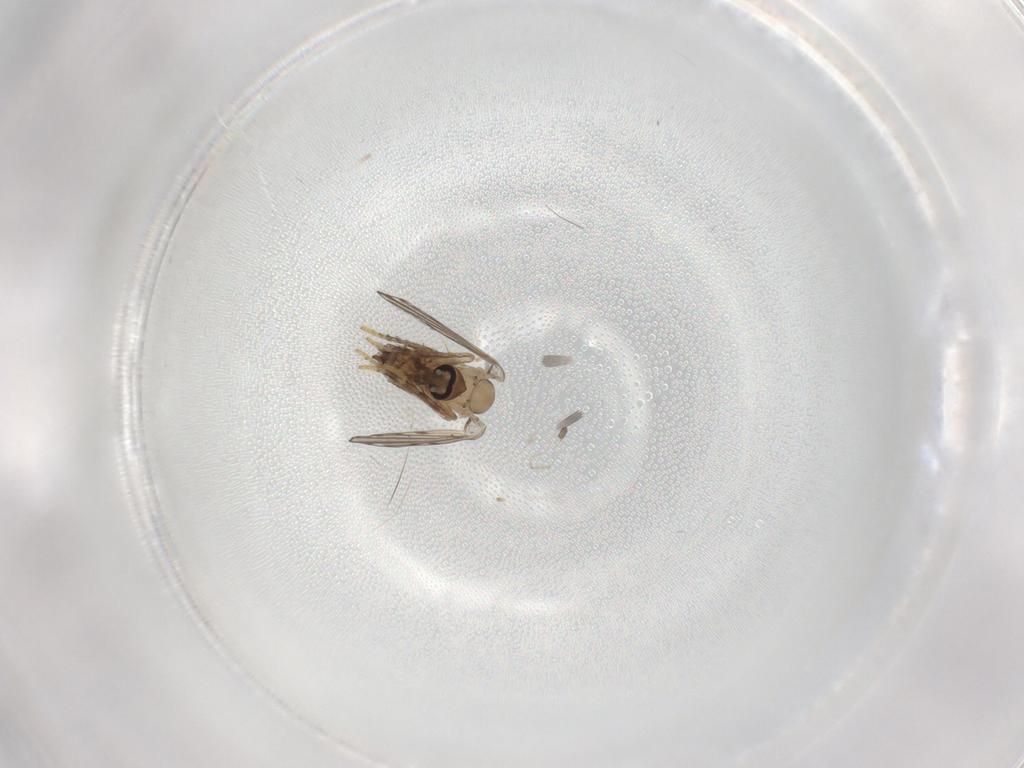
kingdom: Animalia
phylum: Arthropoda
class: Insecta
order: Diptera
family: Psychodidae
